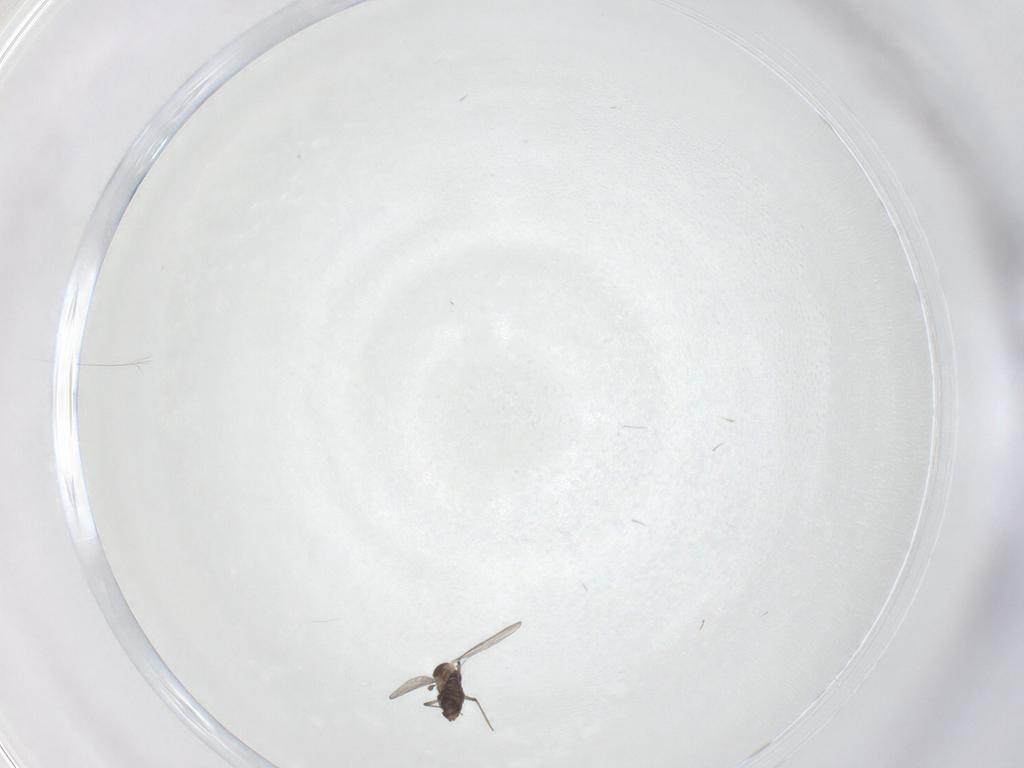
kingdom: Animalia
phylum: Arthropoda
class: Insecta
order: Diptera
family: Chironomidae
